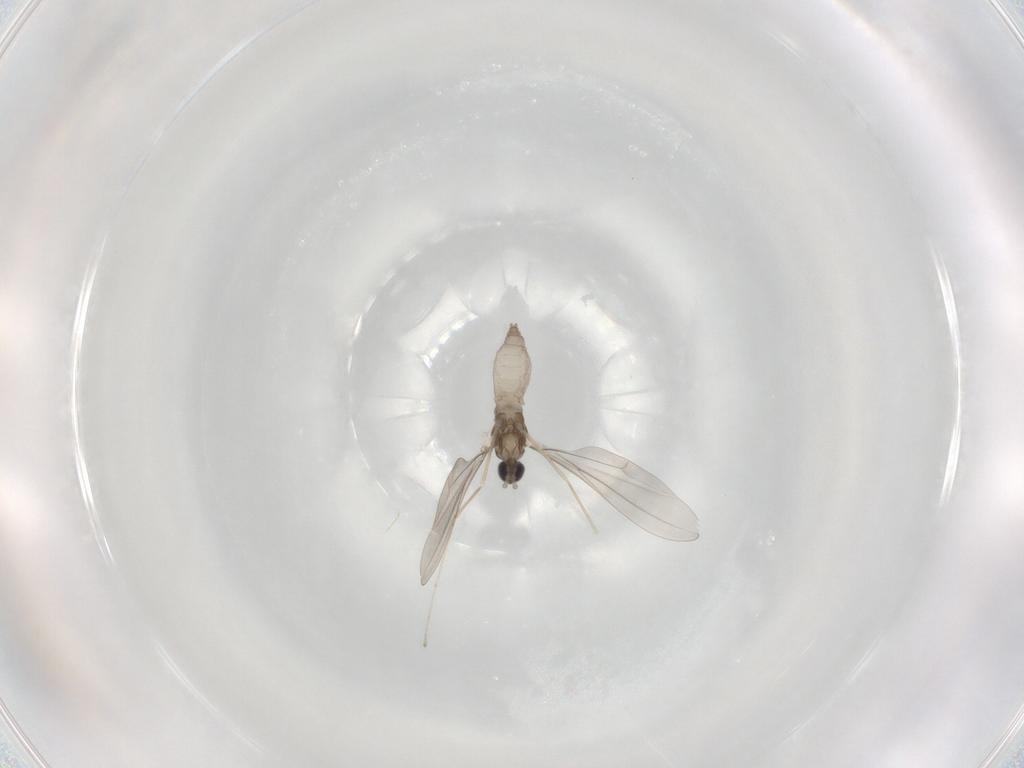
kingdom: Animalia
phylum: Arthropoda
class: Insecta
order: Diptera
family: Cecidomyiidae
